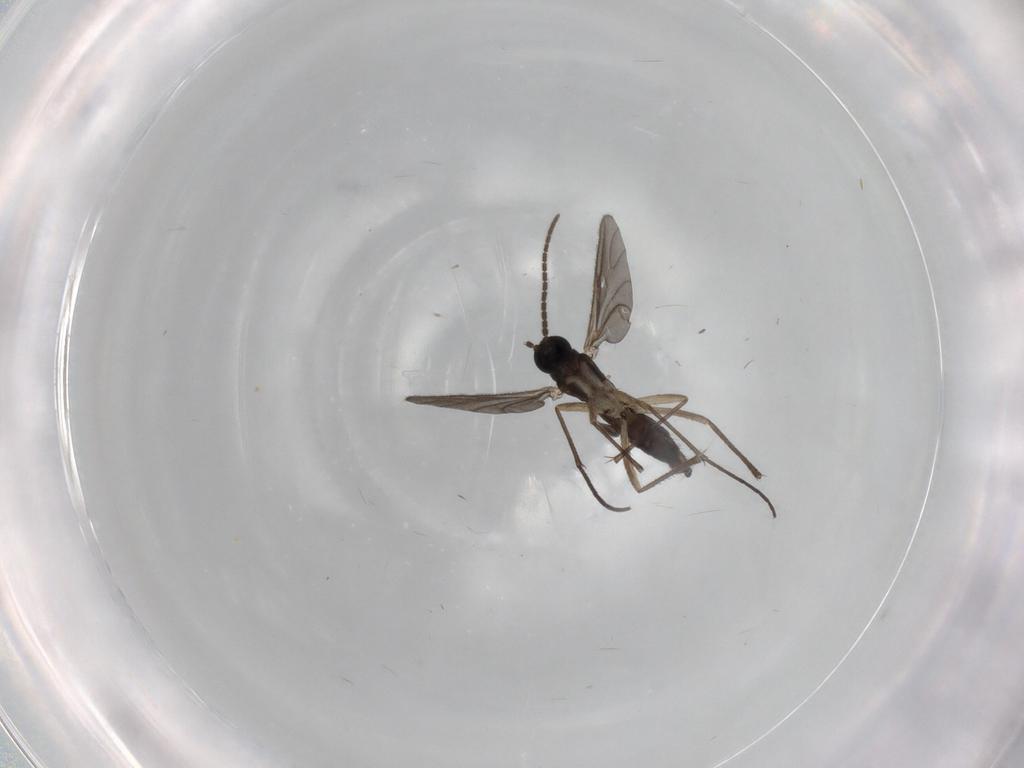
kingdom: Animalia
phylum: Arthropoda
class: Insecta
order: Diptera
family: Sciaridae
